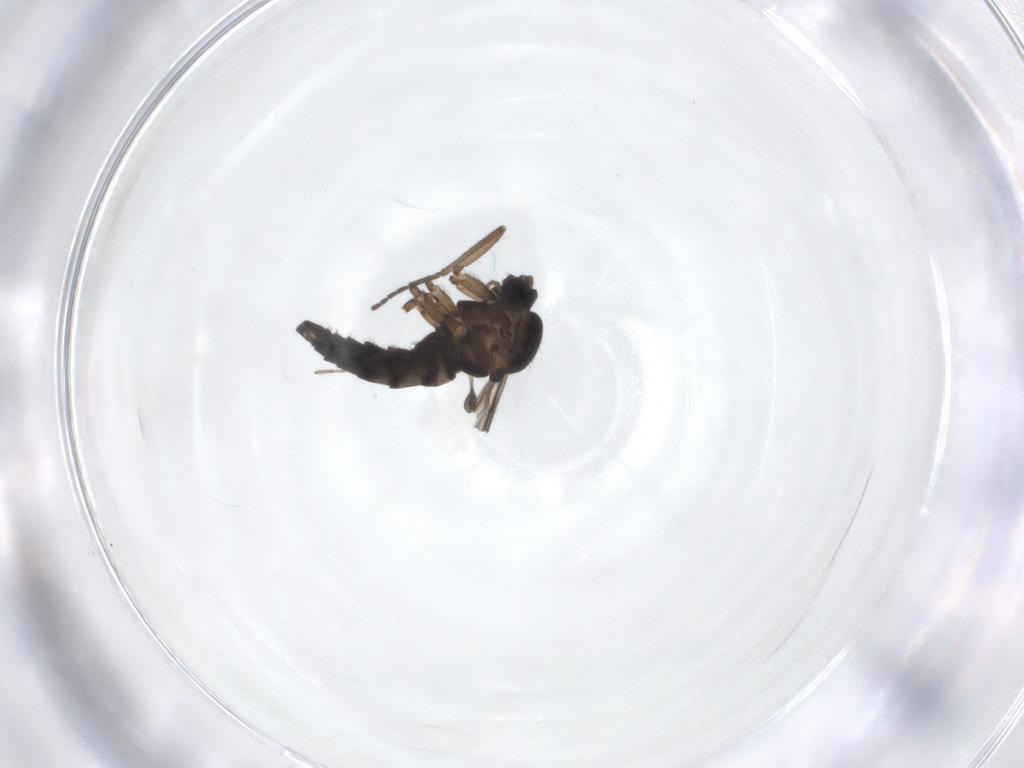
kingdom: Animalia
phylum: Arthropoda
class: Insecta
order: Diptera
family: Sciaridae
